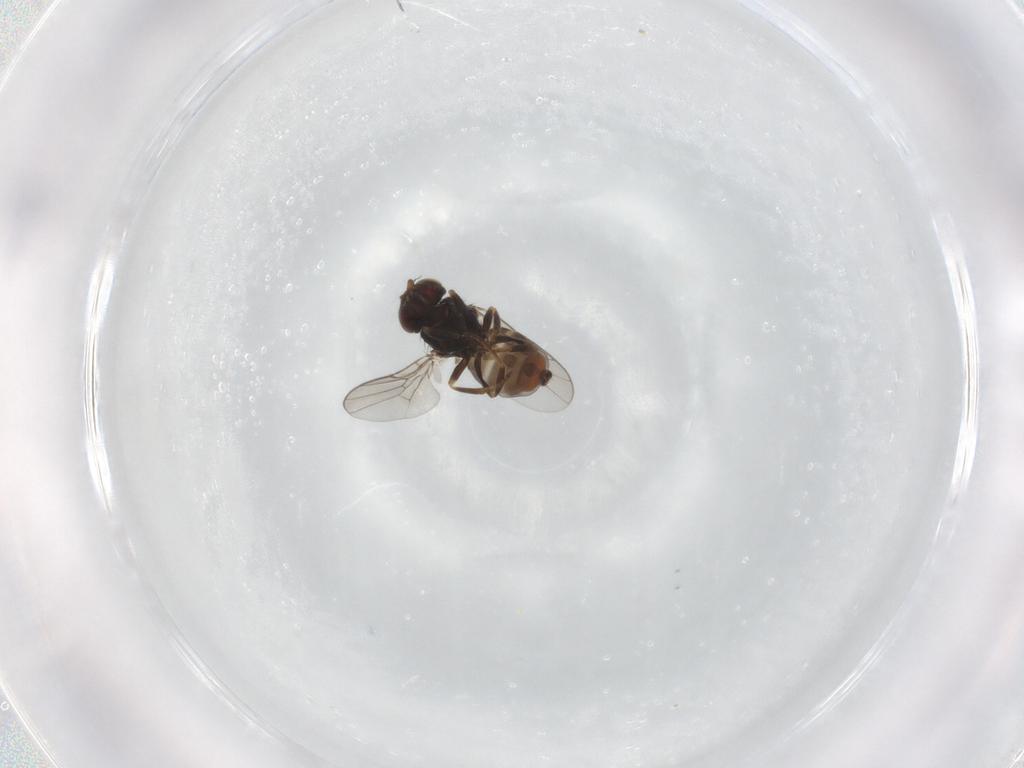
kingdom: Animalia
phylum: Arthropoda
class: Insecta
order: Diptera
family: Chloropidae
